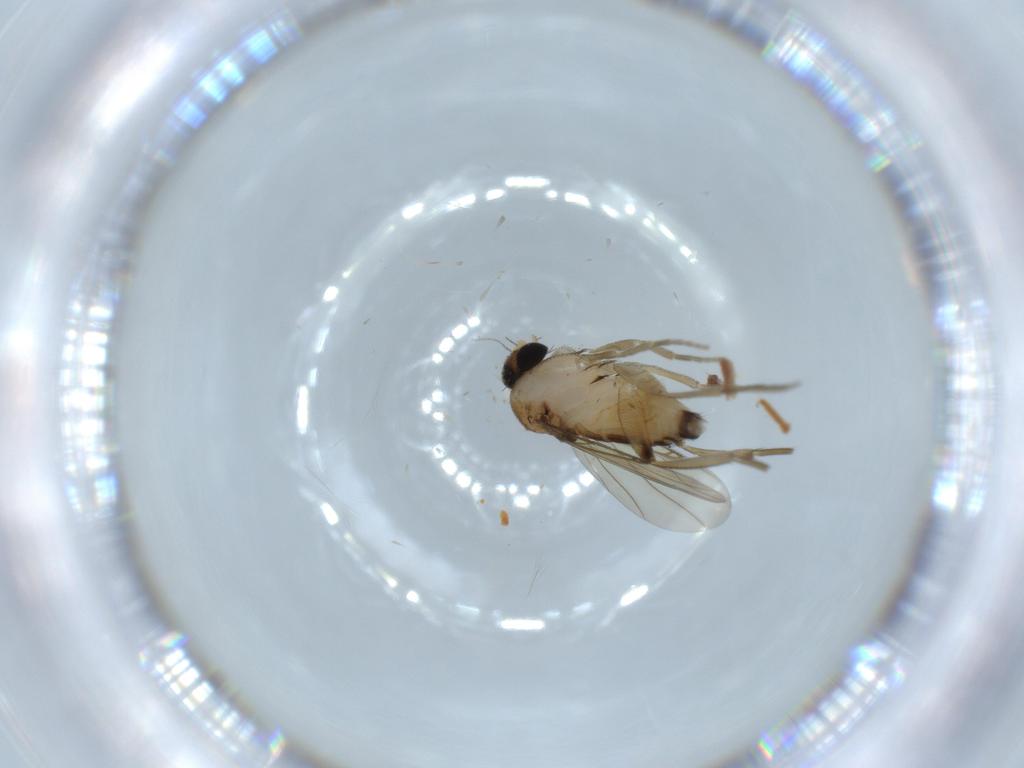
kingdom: Animalia
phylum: Arthropoda
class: Insecta
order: Diptera
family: Phoridae
